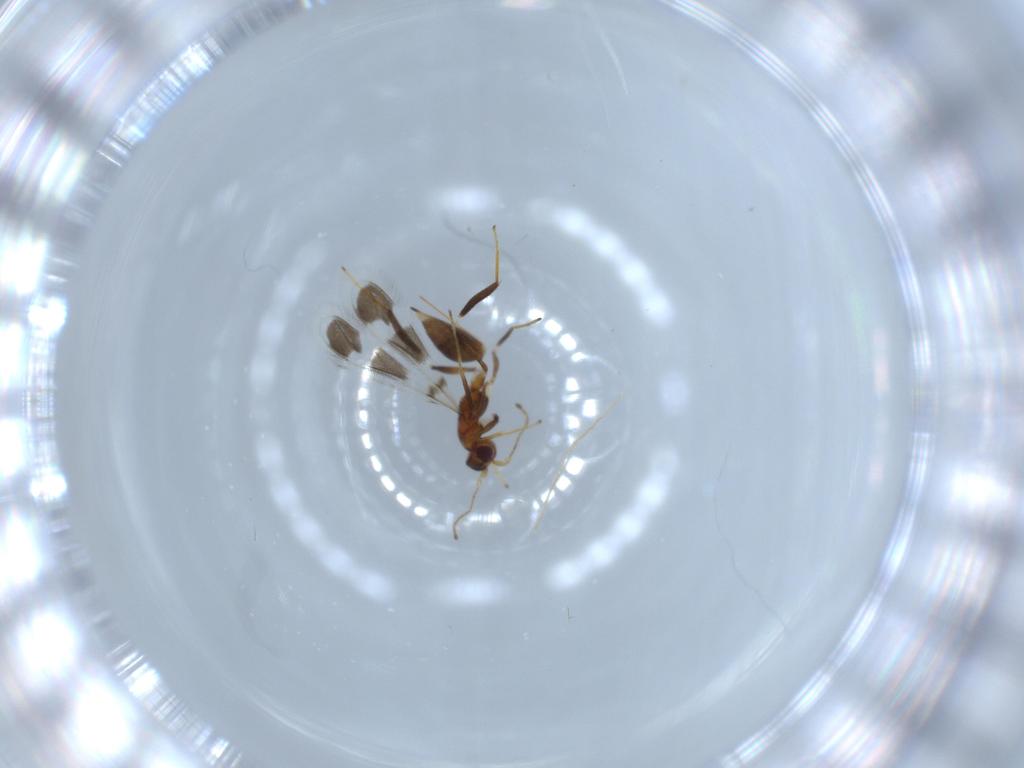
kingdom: Animalia
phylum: Arthropoda
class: Insecta
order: Hymenoptera
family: Mymaridae
